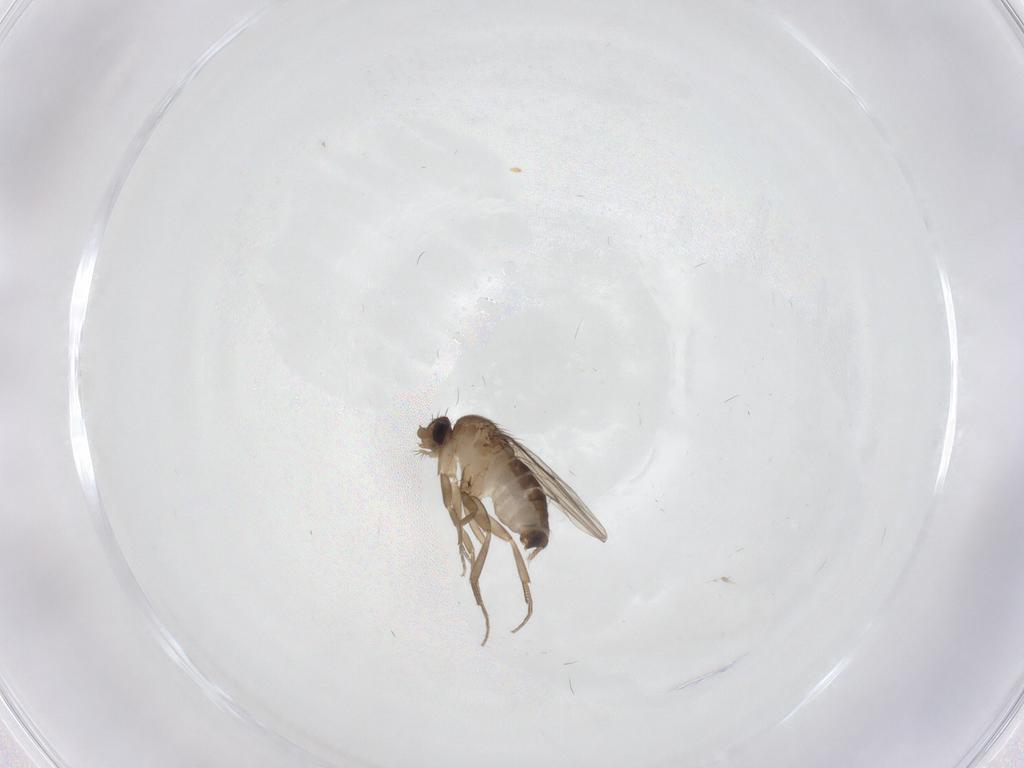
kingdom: Animalia
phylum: Arthropoda
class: Insecta
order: Diptera
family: Phoridae
